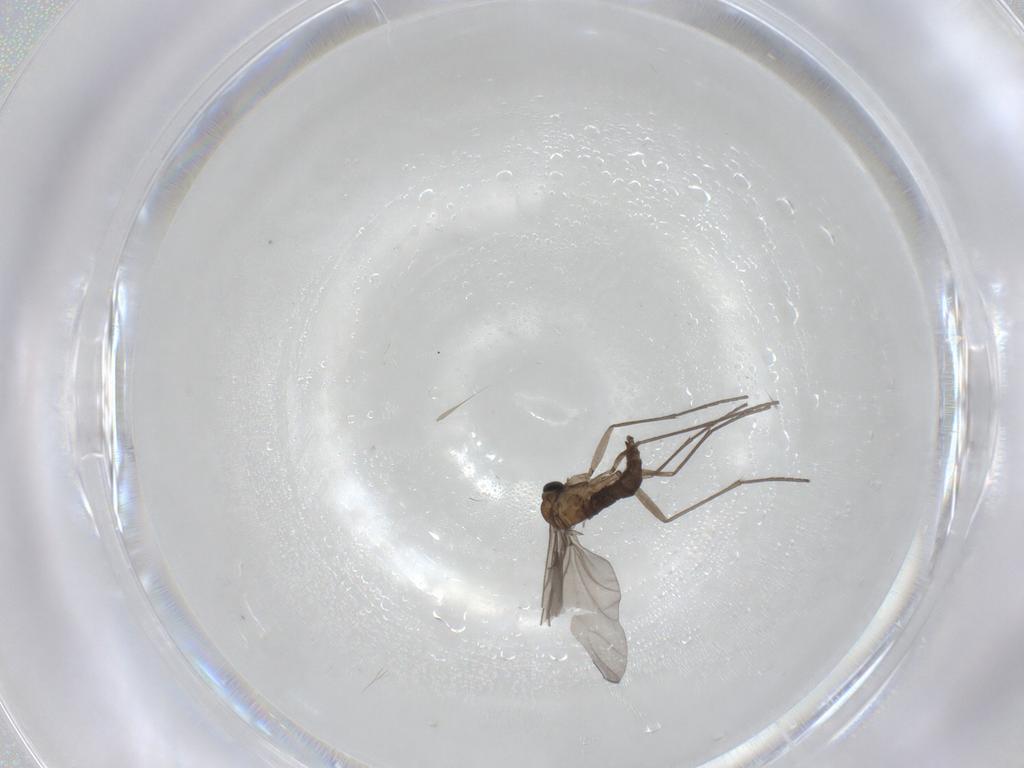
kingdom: Animalia
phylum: Arthropoda
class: Insecta
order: Diptera
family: Sciaridae
